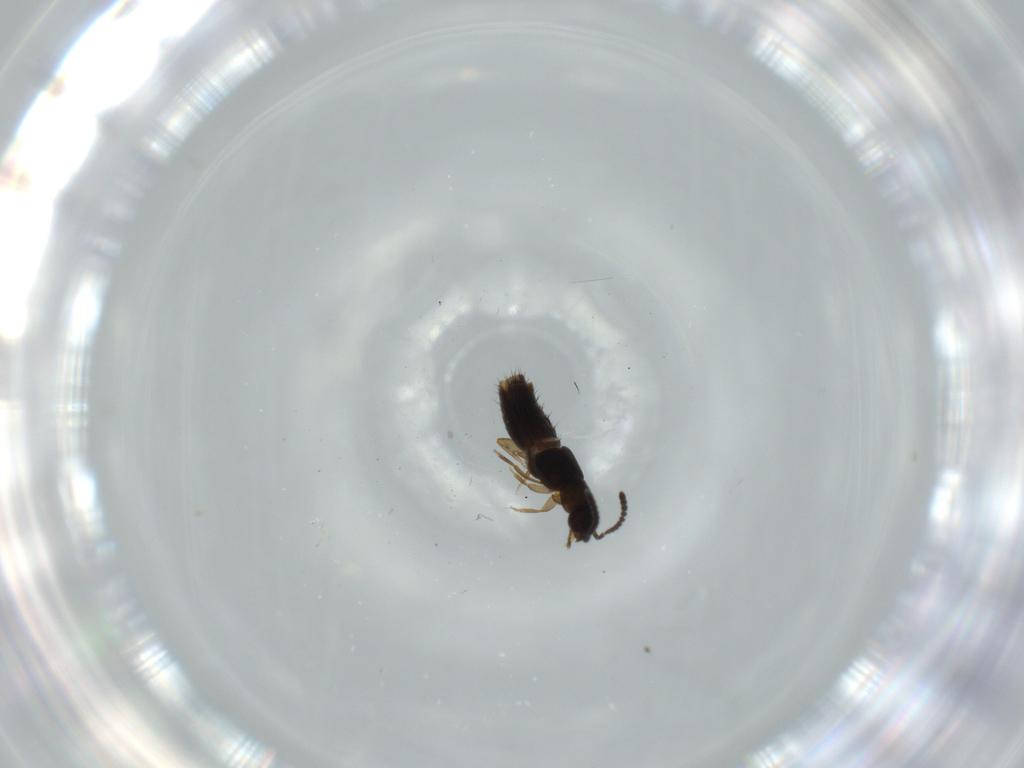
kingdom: Animalia
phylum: Arthropoda
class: Insecta
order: Coleoptera
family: Staphylinidae
